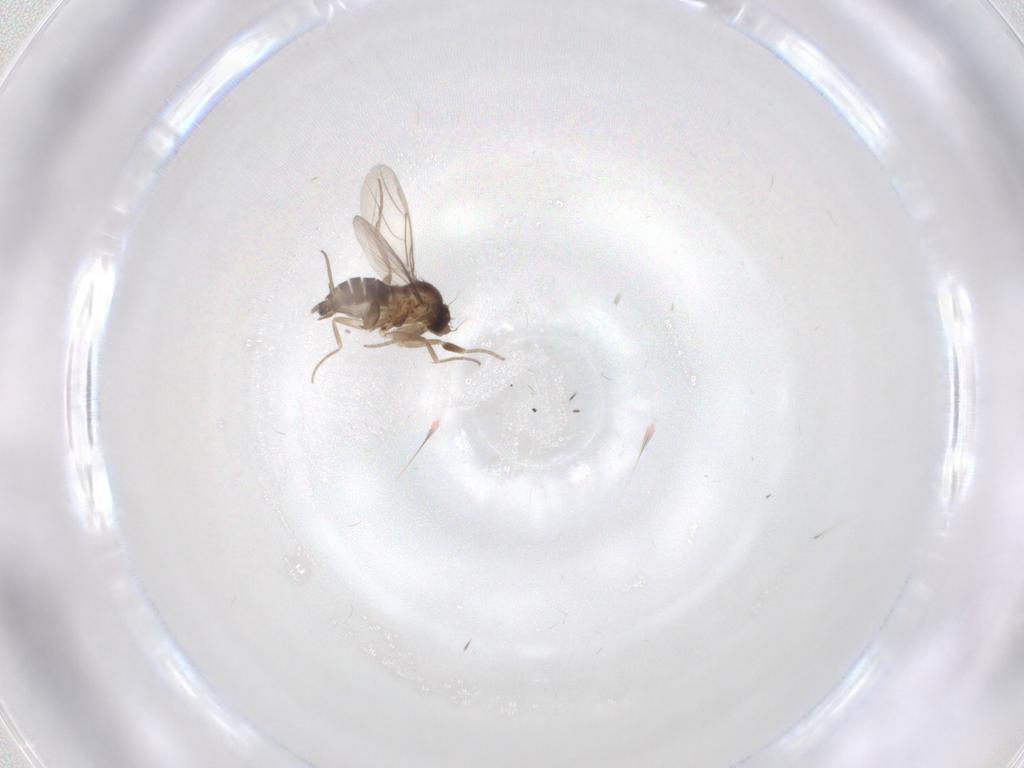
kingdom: Animalia
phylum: Arthropoda
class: Insecta
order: Diptera
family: Phoridae
